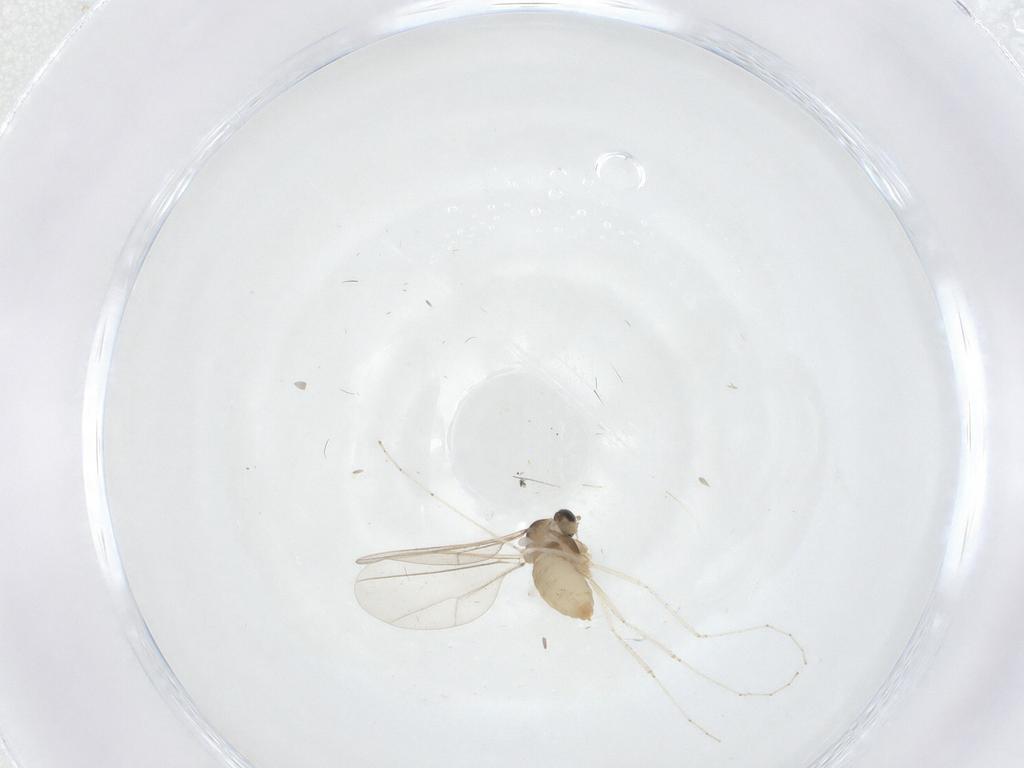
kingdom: Animalia
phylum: Arthropoda
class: Insecta
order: Diptera
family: Cecidomyiidae
